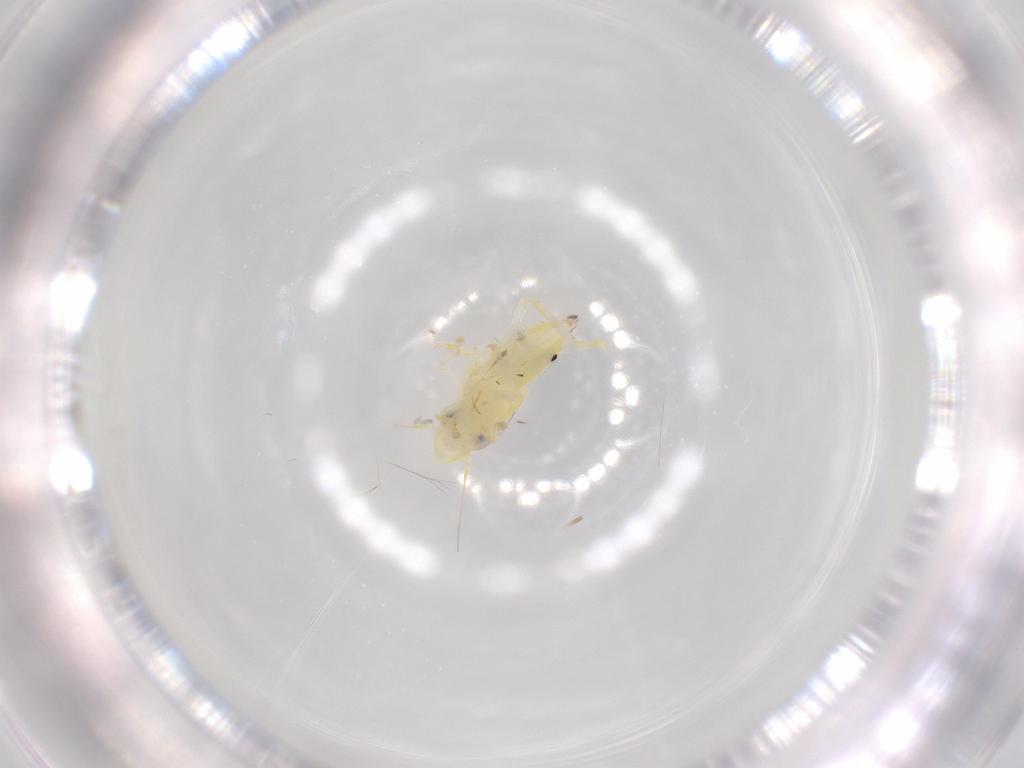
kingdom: Animalia
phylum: Arthropoda
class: Insecta
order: Hemiptera
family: Cicadellidae
